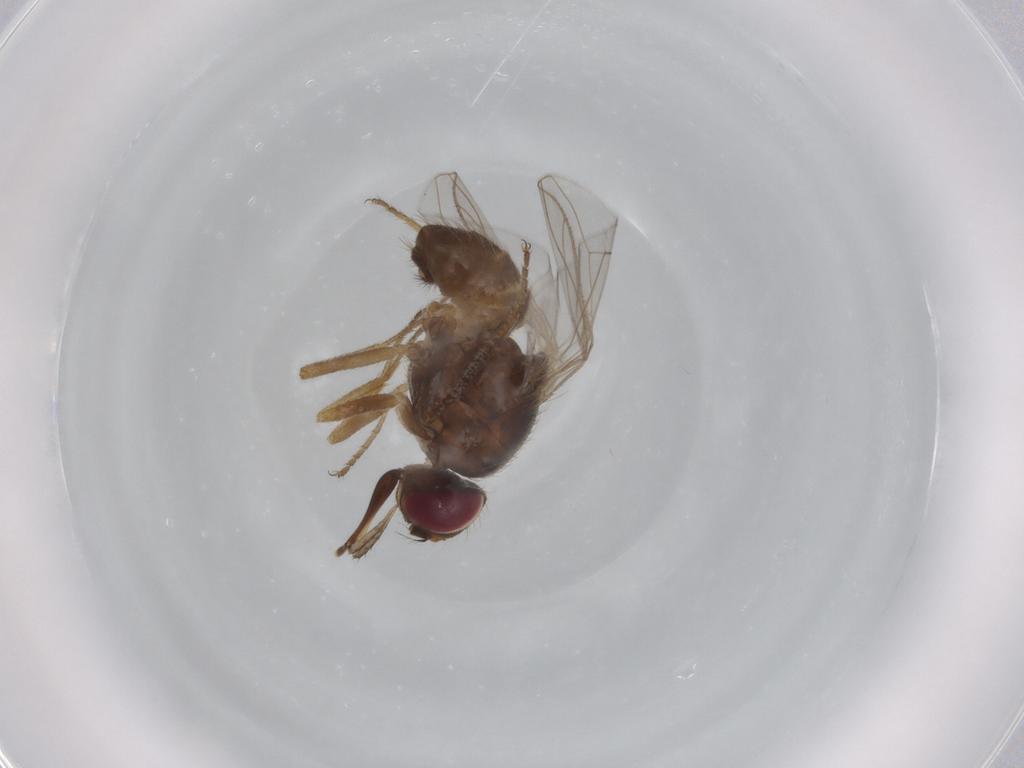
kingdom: Animalia
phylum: Arthropoda
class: Insecta
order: Diptera
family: Muscidae
